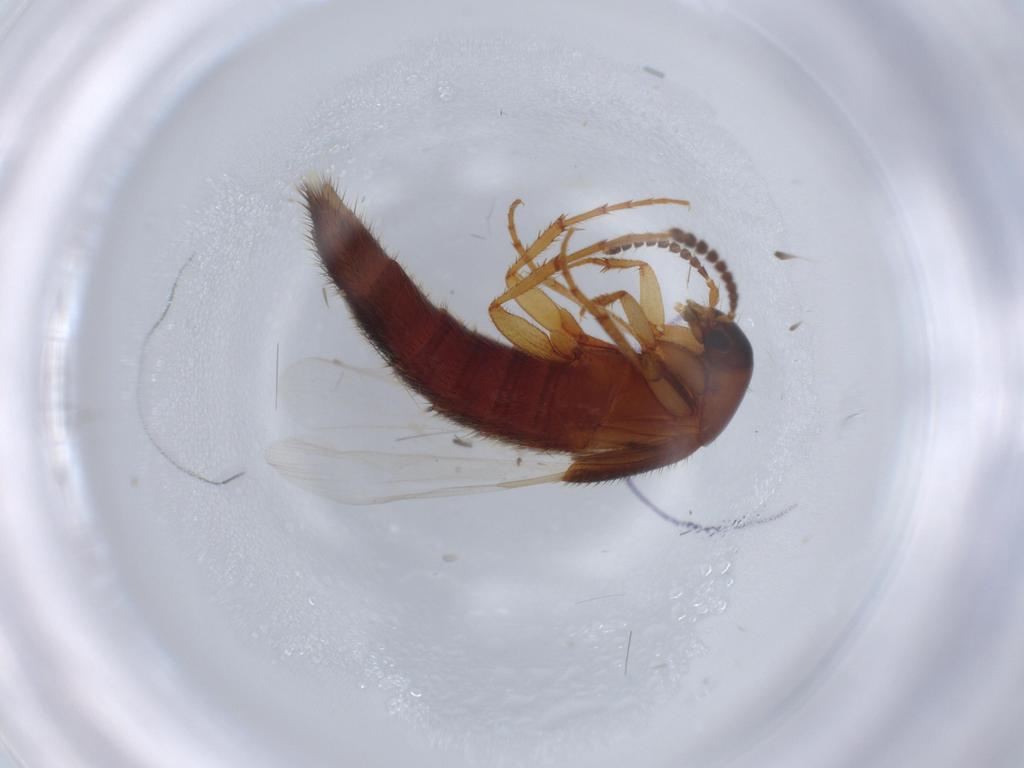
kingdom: Animalia
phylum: Arthropoda
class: Insecta
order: Coleoptera
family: Staphylinidae
